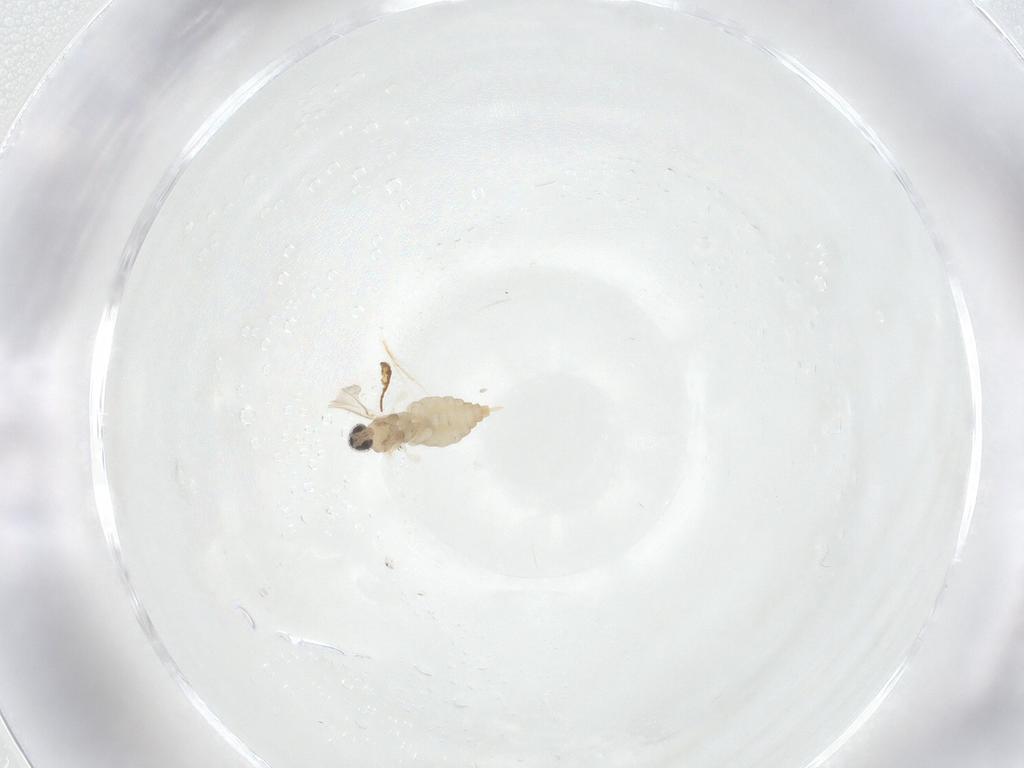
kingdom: Animalia
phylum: Arthropoda
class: Insecta
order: Diptera
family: Cecidomyiidae
